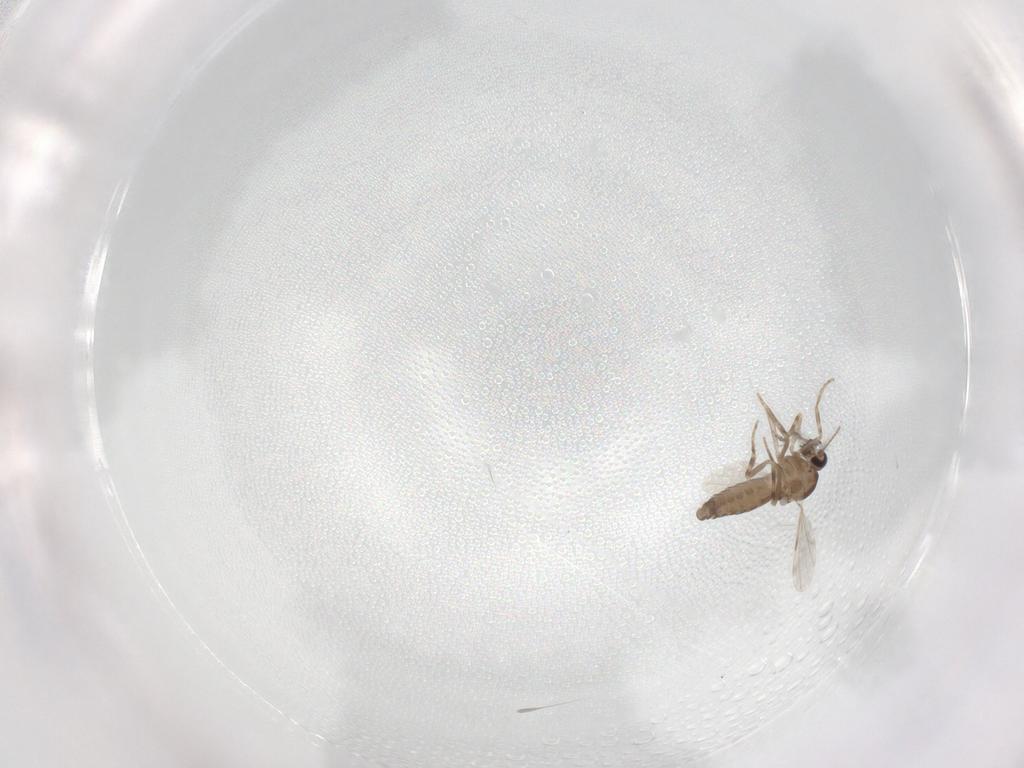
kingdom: Animalia
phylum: Arthropoda
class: Insecta
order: Diptera
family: Ceratopogonidae
